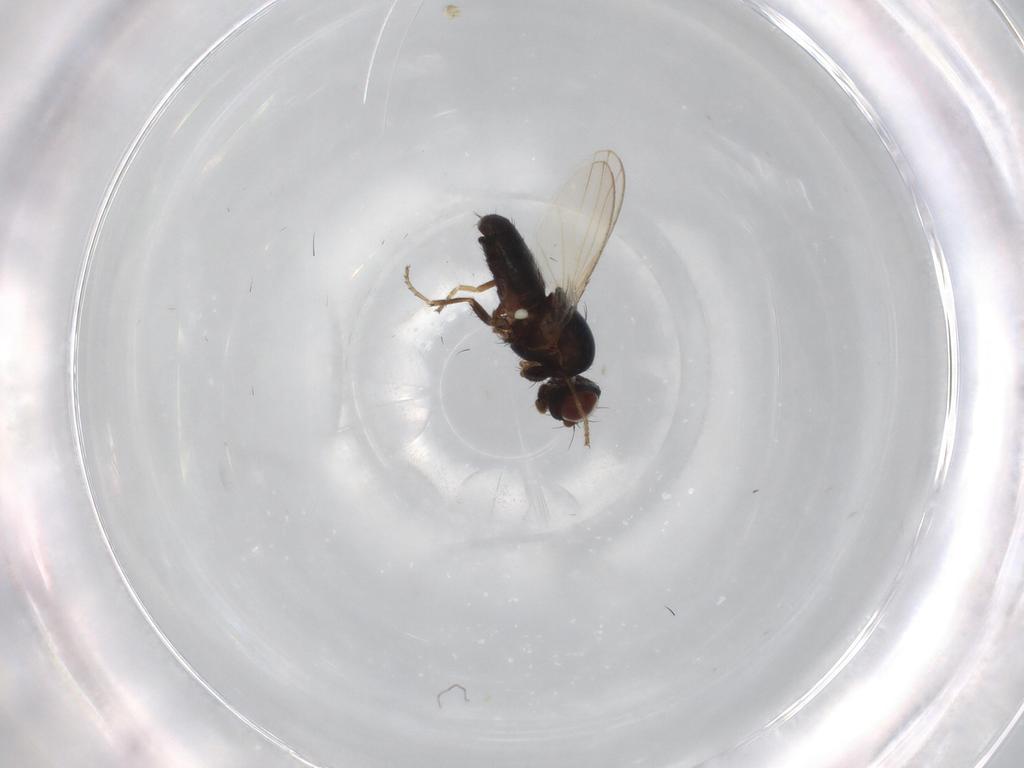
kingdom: Animalia
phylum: Arthropoda
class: Insecta
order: Diptera
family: Carnidae
